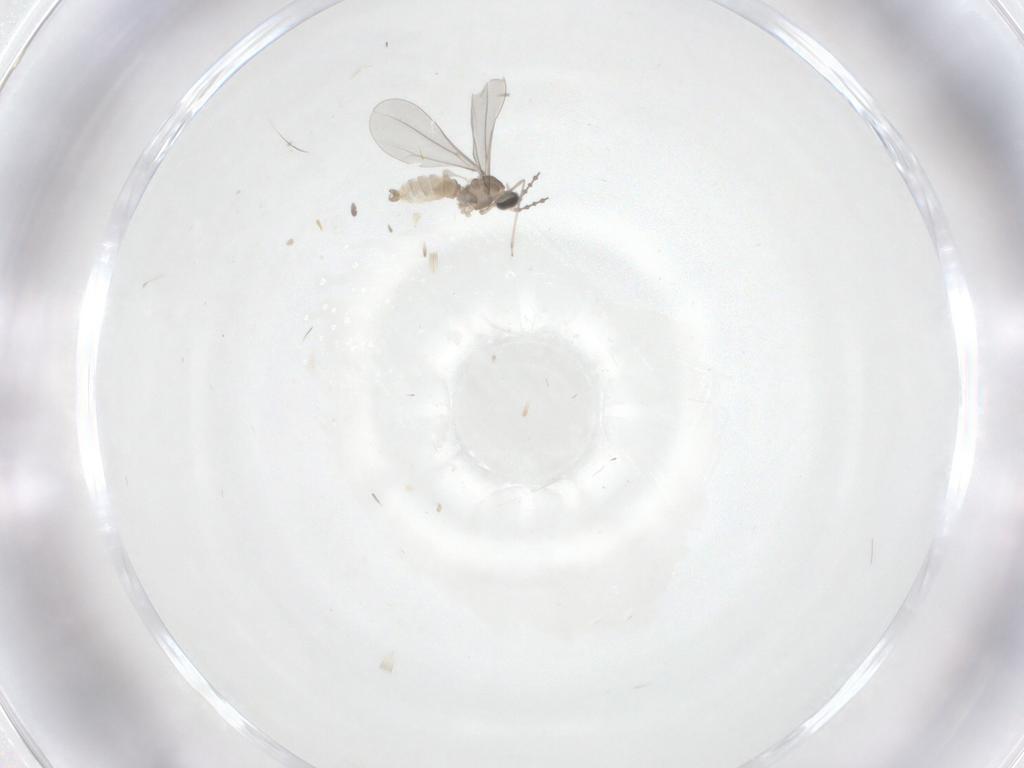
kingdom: Animalia
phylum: Arthropoda
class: Insecta
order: Diptera
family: Cecidomyiidae
